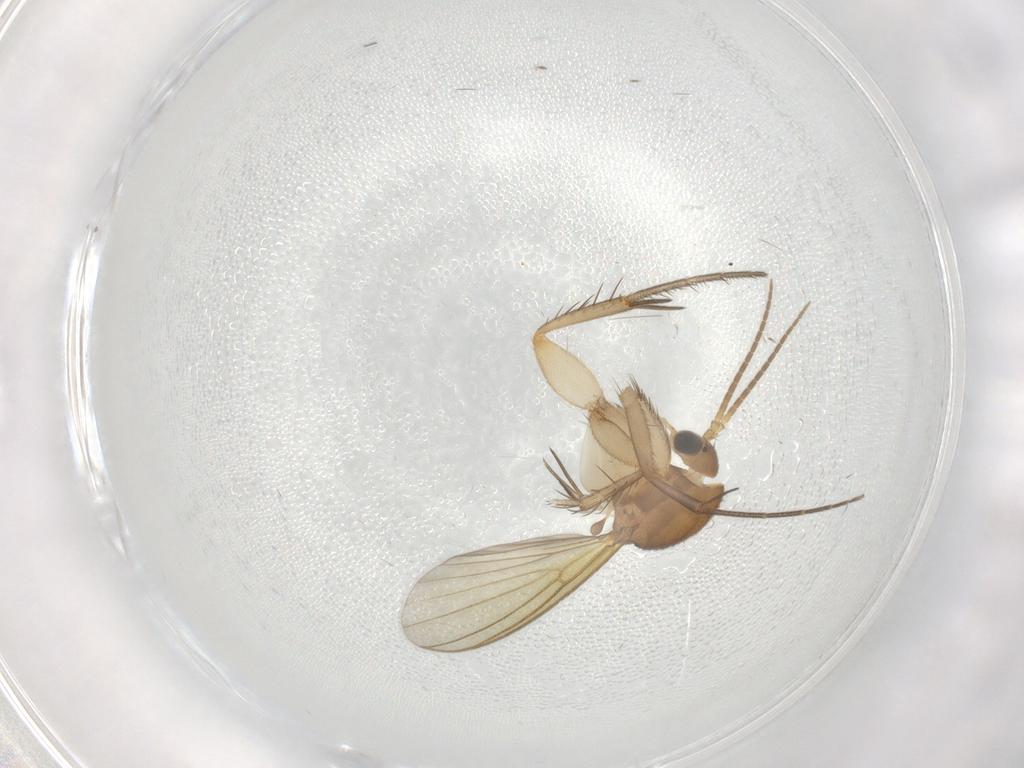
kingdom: Animalia
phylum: Arthropoda
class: Insecta
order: Diptera
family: Mycetophilidae
